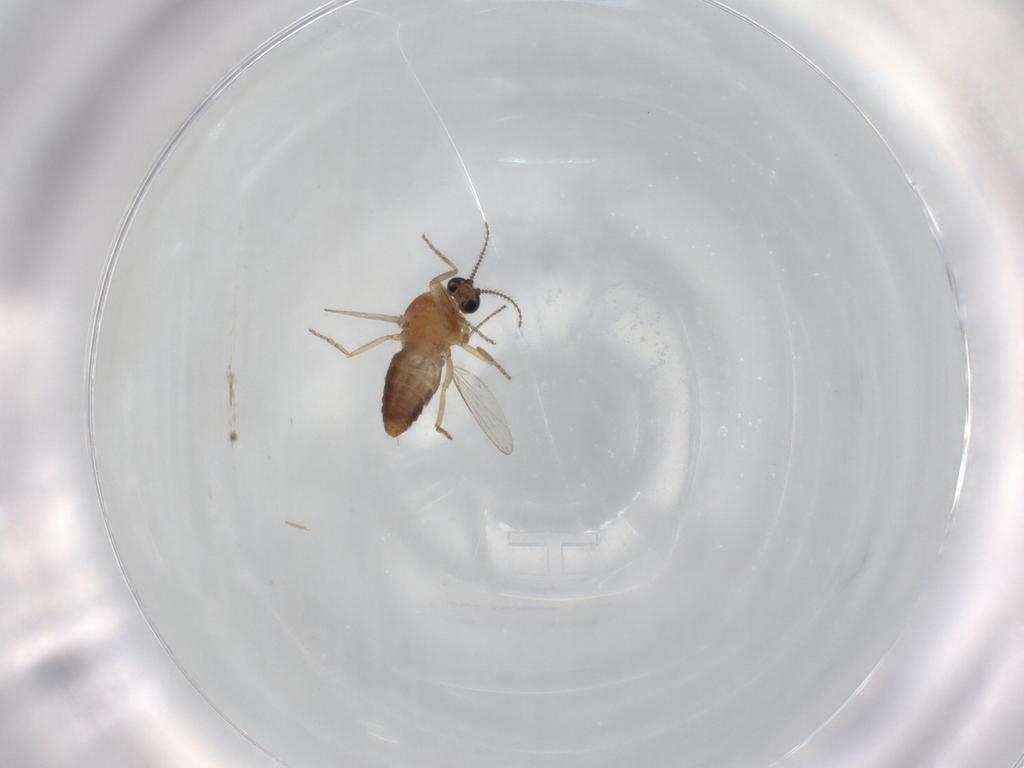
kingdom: Animalia
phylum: Arthropoda
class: Insecta
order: Diptera
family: Ceratopogonidae
